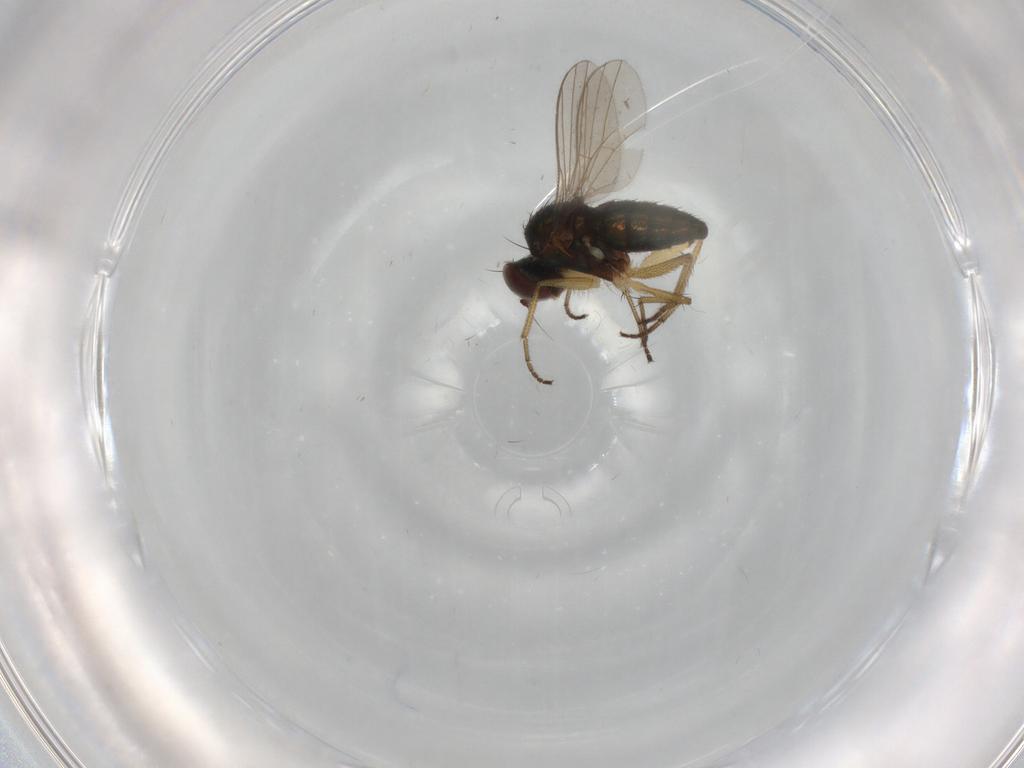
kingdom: Animalia
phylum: Arthropoda
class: Insecta
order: Diptera
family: Dolichopodidae
